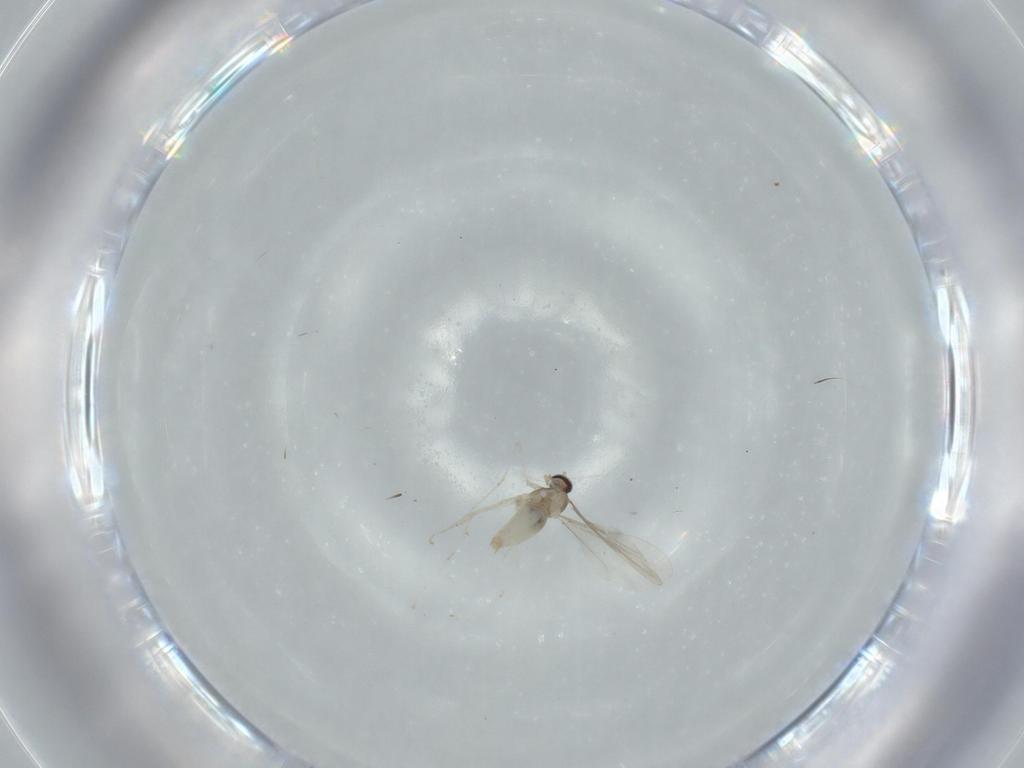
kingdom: Animalia
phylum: Arthropoda
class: Insecta
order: Diptera
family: Cecidomyiidae
